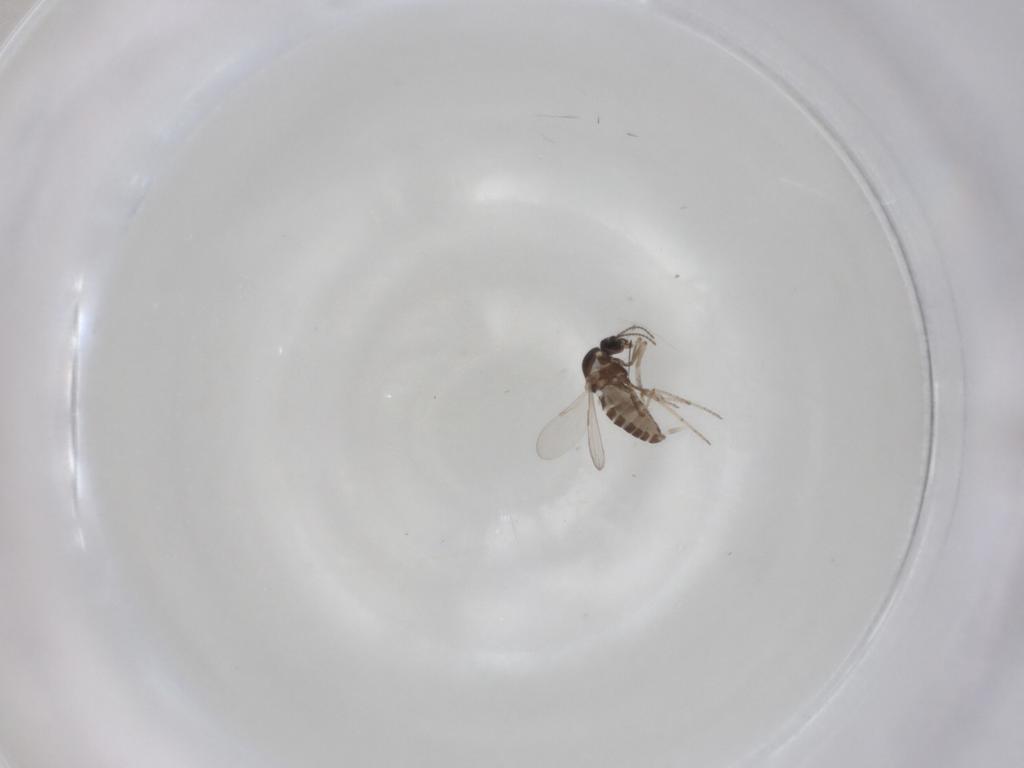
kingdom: Animalia
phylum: Arthropoda
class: Insecta
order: Diptera
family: Ceratopogonidae
